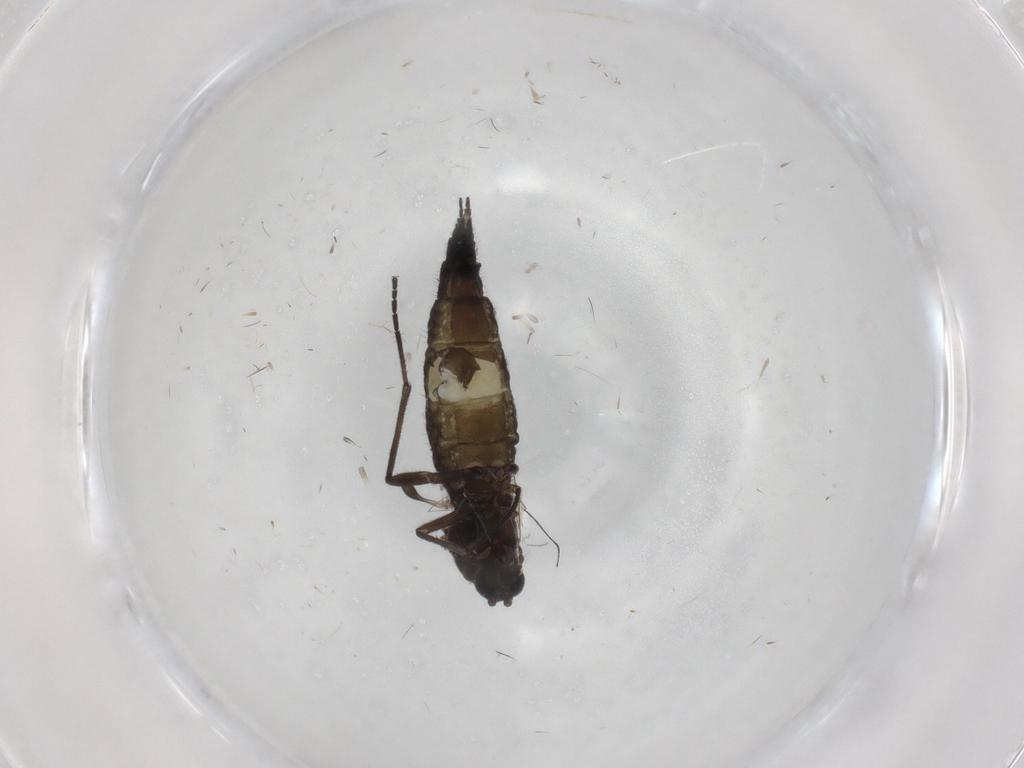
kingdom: Animalia
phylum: Arthropoda
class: Insecta
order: Diptera
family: Sciaridae
